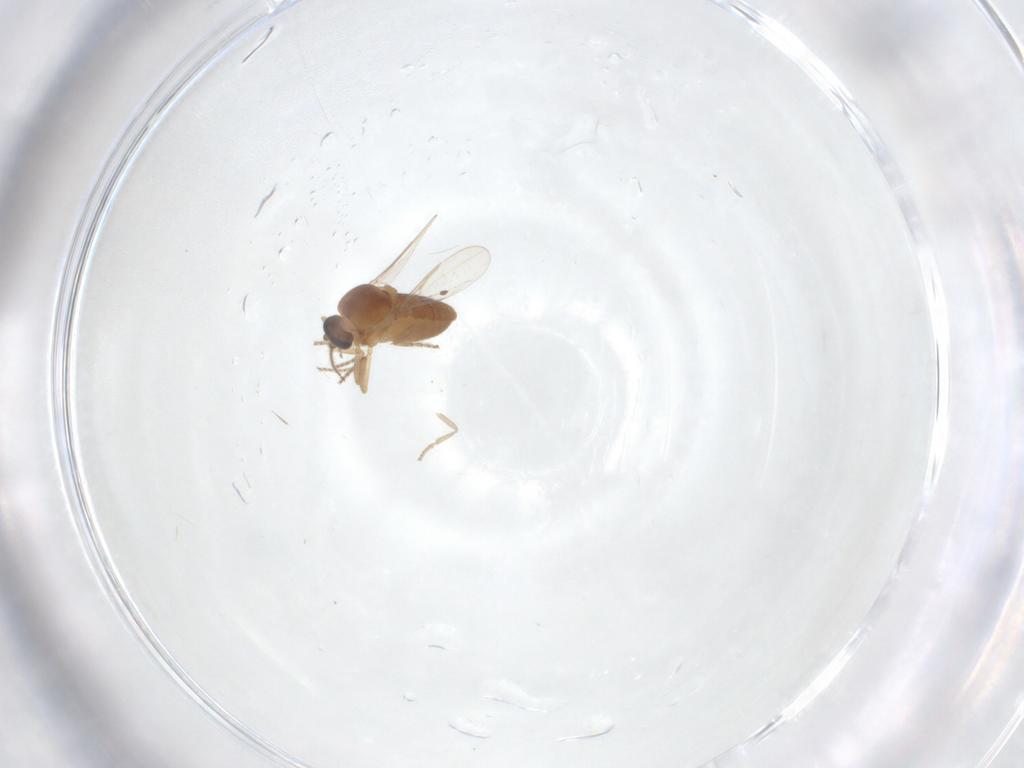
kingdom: Animalia
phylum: Arthropoda
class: Insecta
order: Diptera
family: Ceratopogonidae
